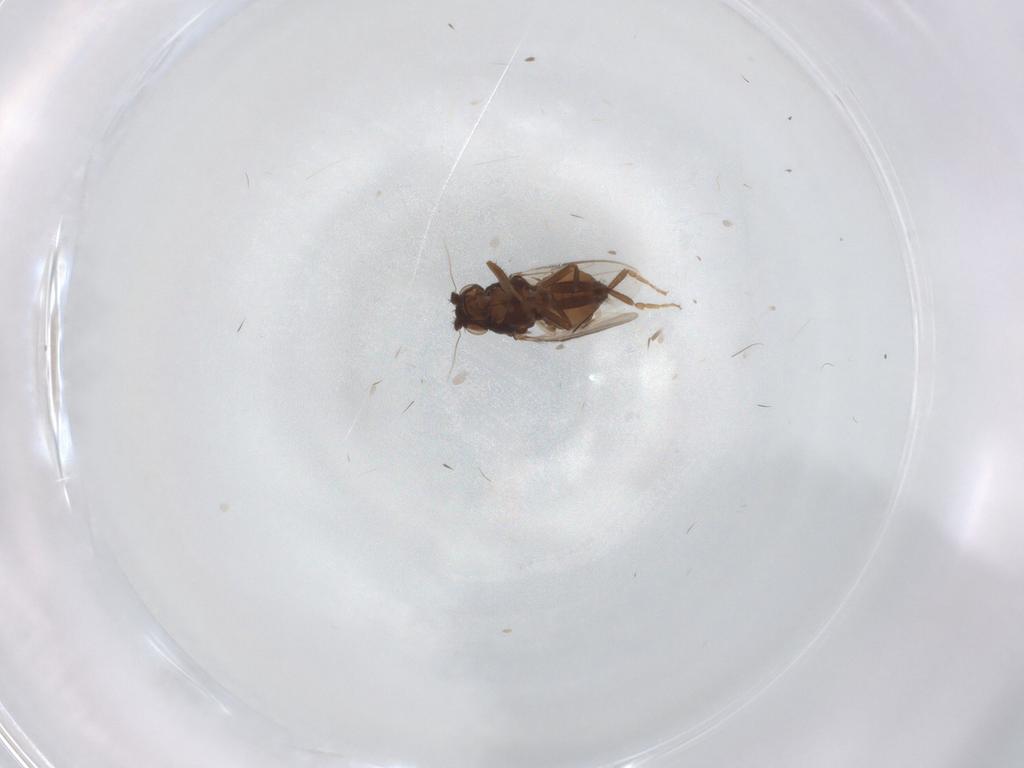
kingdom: Animalia
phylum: Arthropoda
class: Insecta
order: Diptera
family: Sphaeroceridae
